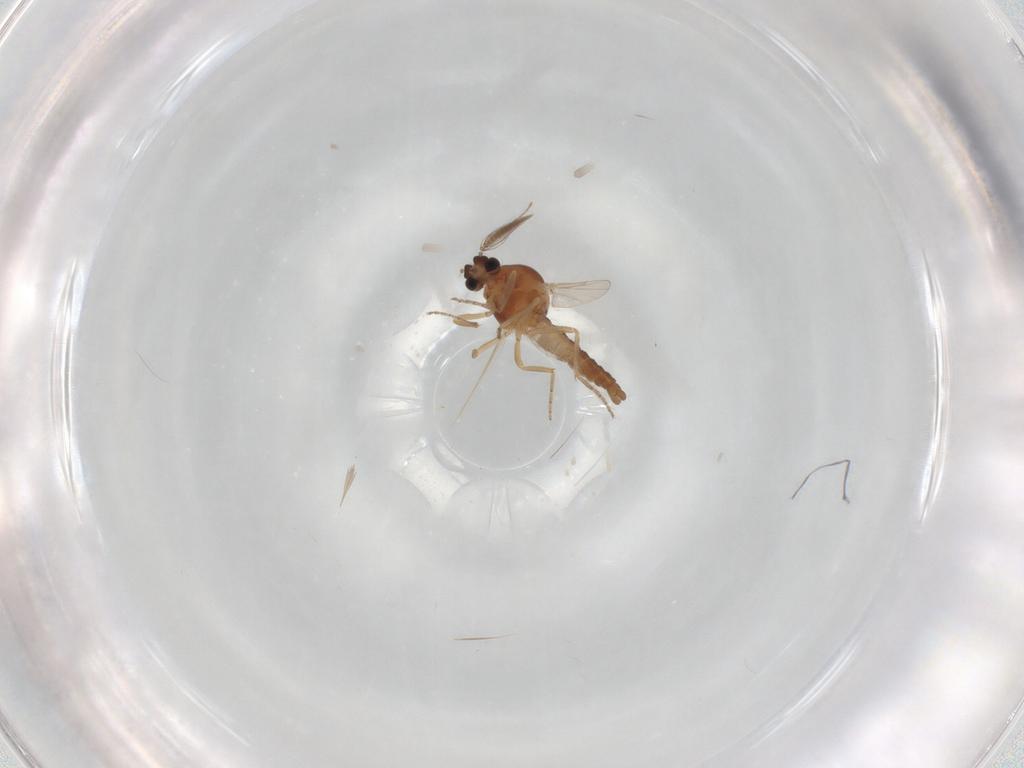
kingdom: Animalia
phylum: Arthropoda
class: Insecta
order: Diptera
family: Ceratopogonidae
